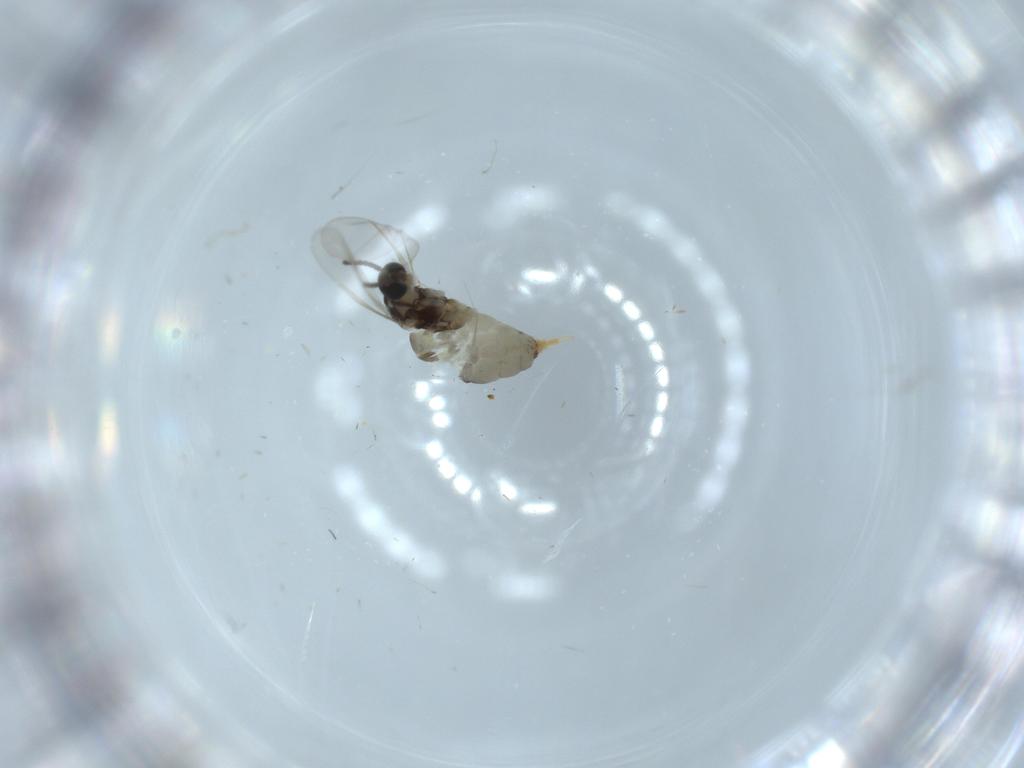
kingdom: Animalia
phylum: Arthropoda
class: Insecta
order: Diptera
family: Cecidomyiidae
